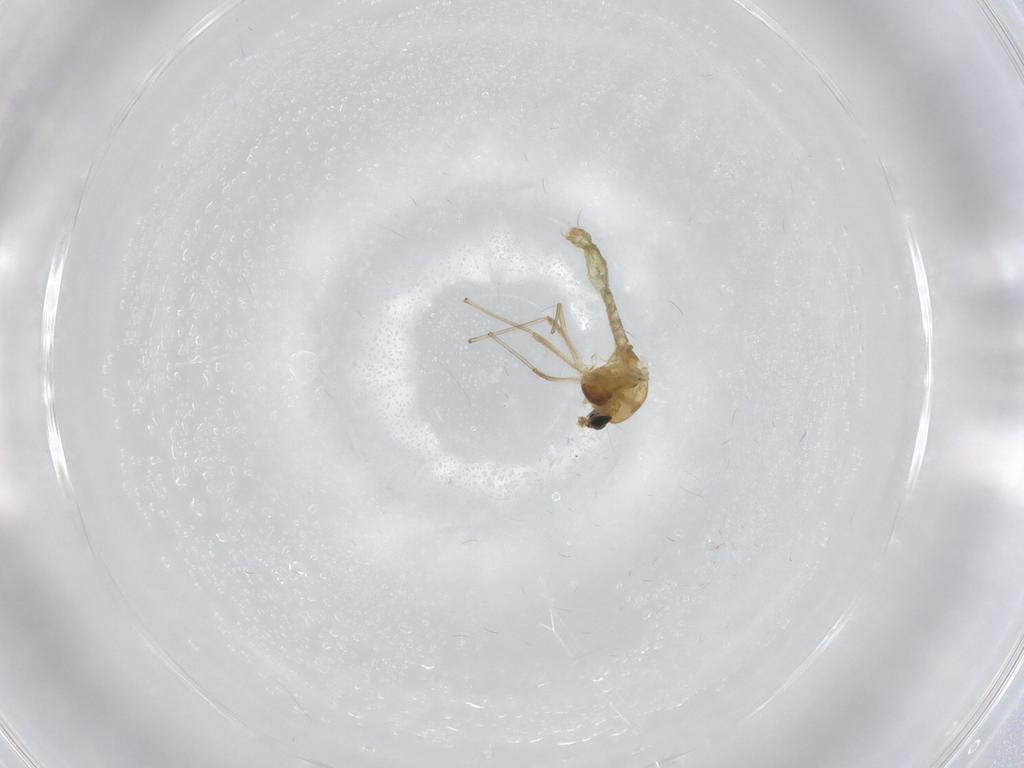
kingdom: Animalia
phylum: Arthropoda
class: Insecta
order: Diptera
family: Chironomidae
